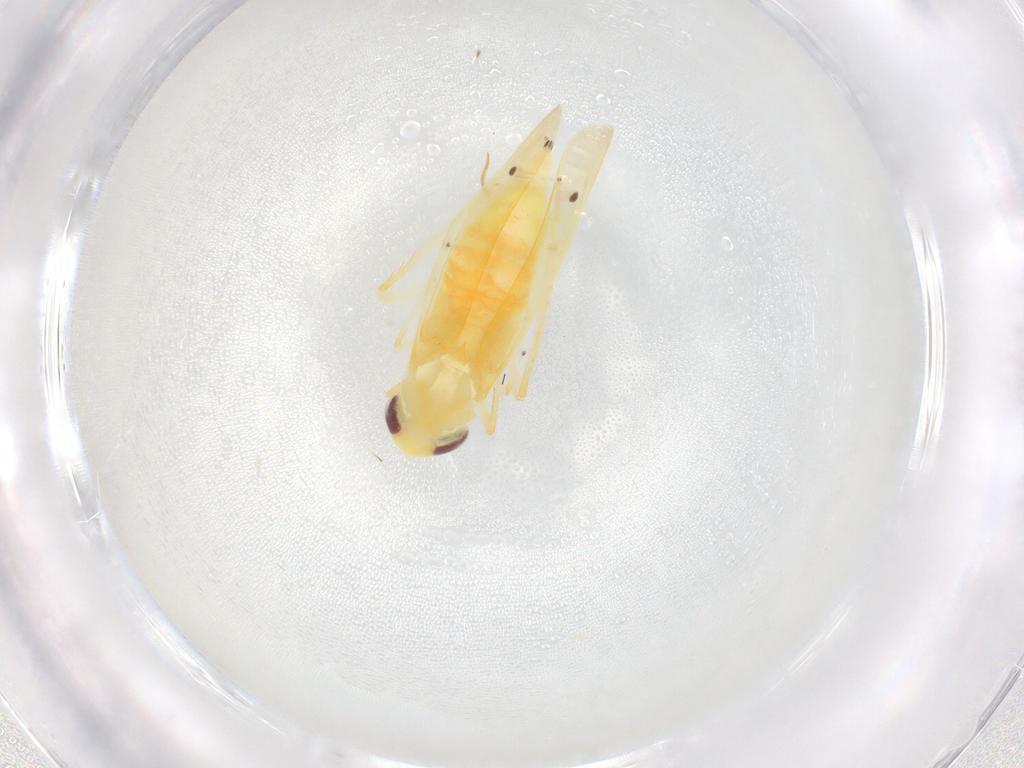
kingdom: Animalia
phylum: Arthropoda
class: Insecta
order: Hemiptera
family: Cicadellidae
